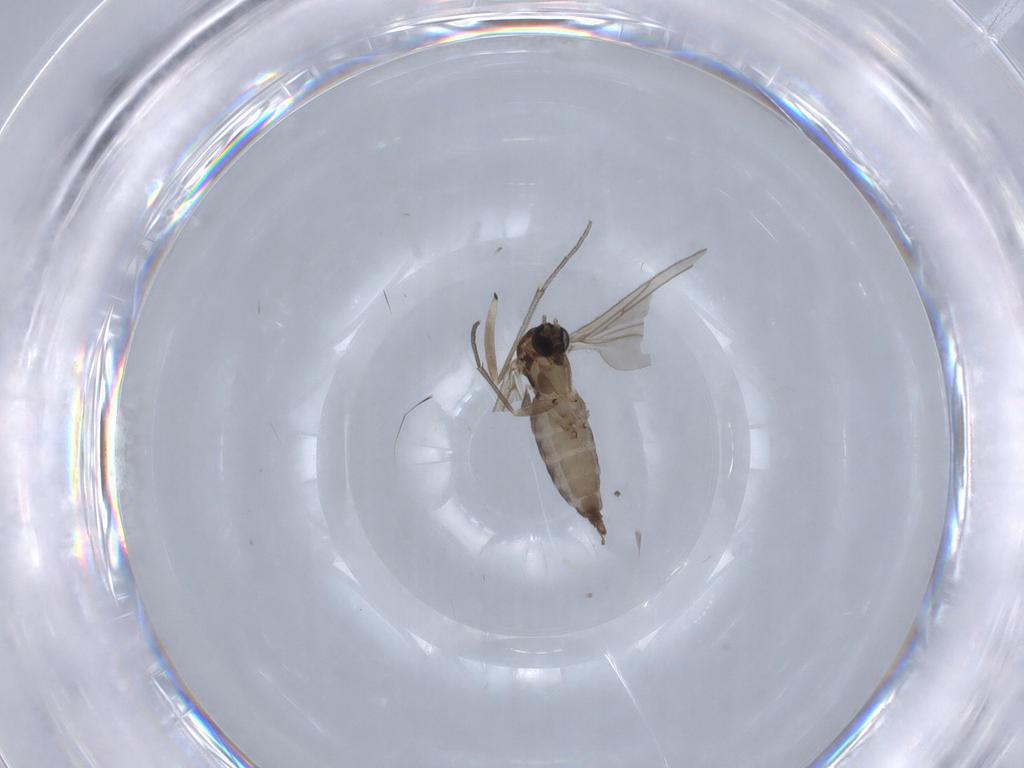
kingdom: Animalia
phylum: Arthropoda
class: Insecta
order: Diptera
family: Sciaridae
